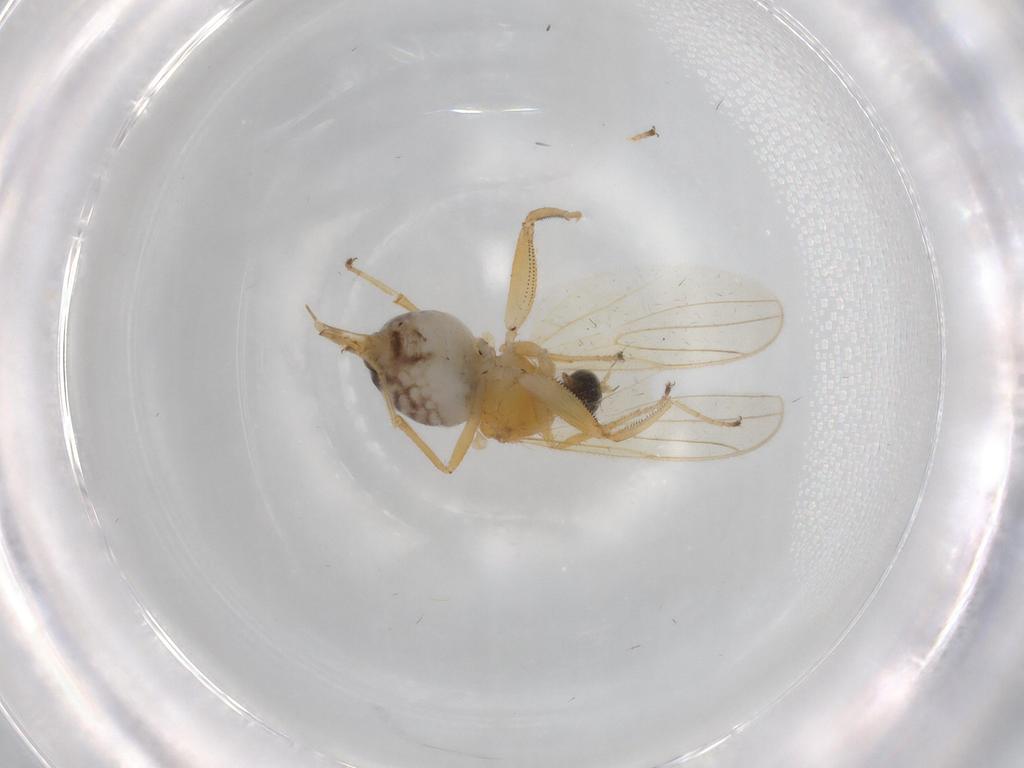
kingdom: Animalia
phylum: Arthropoda
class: Insecta
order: Diptera
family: Hybotidae
